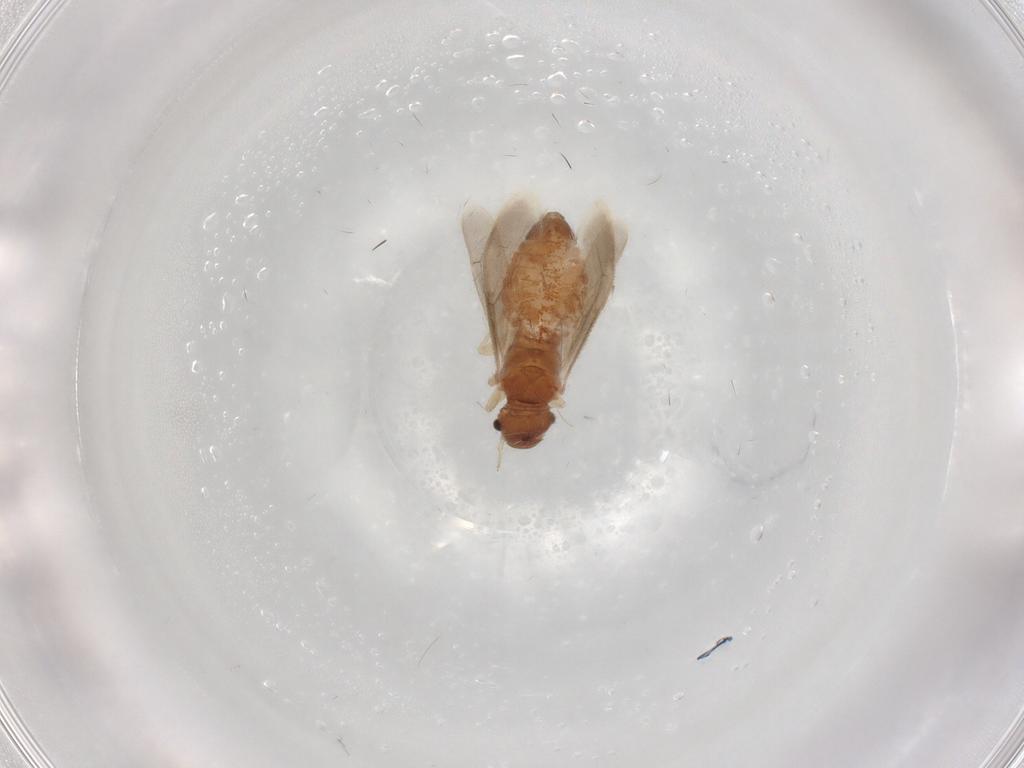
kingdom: Animalia
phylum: Arthropoda
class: Insecta
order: Psocodea
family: Archipsocidae
